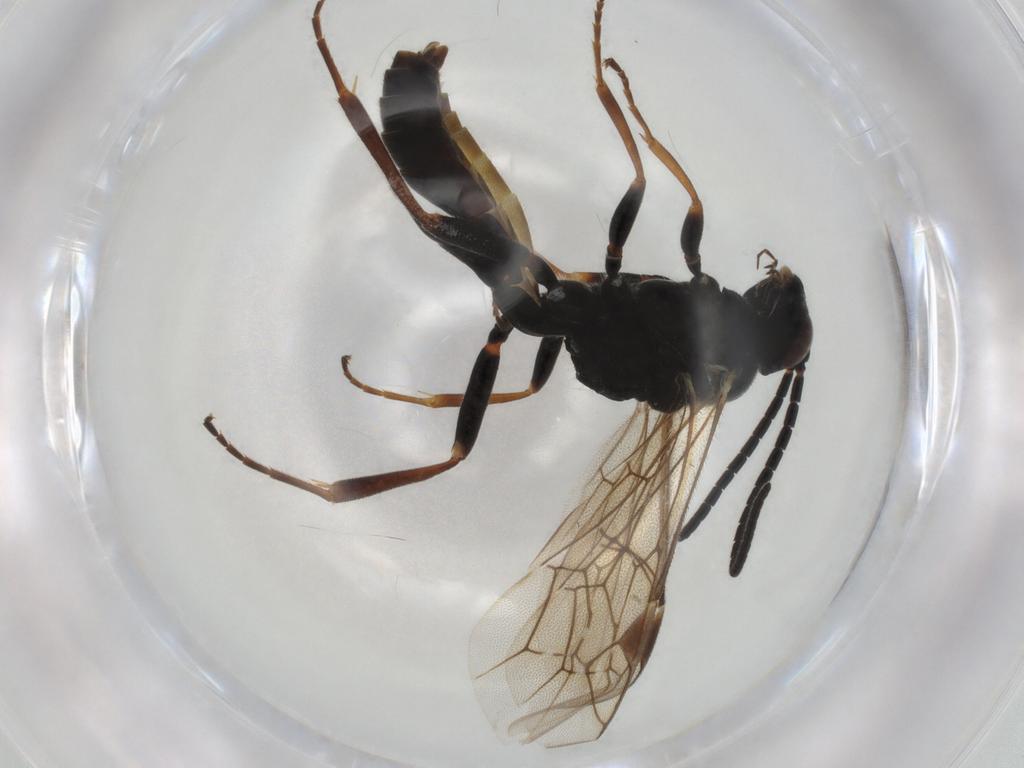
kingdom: Animalia
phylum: Arthropoda
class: Insecta
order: Hymenoptera
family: Ichneumonidae
